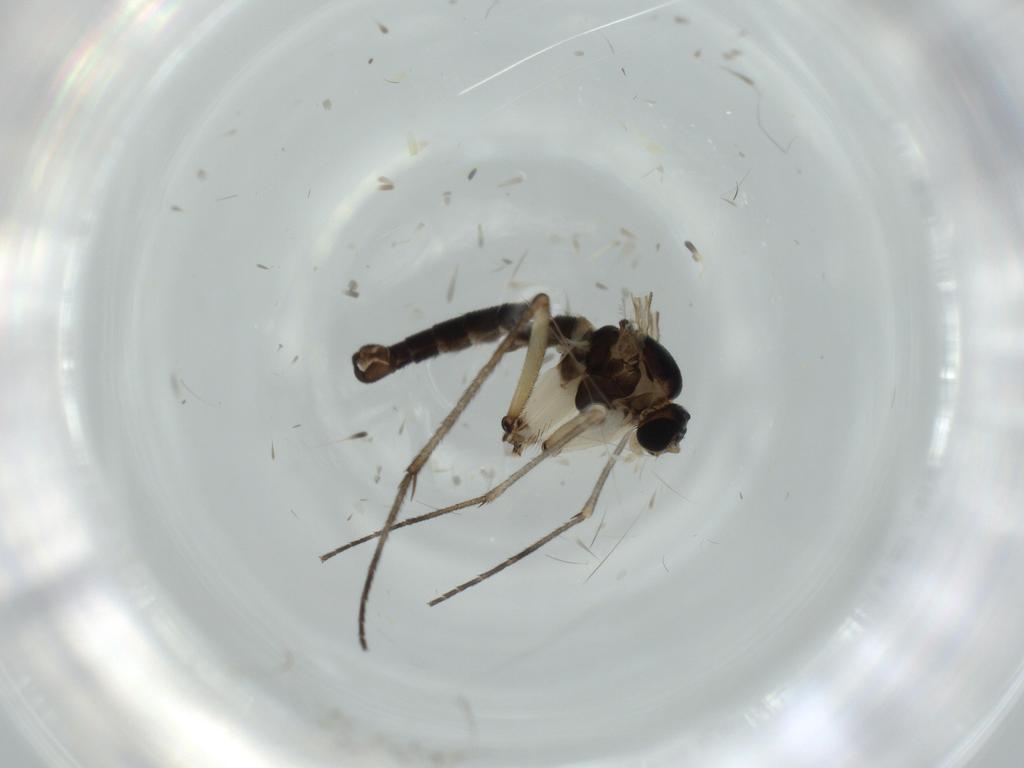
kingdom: Animalia
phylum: Arthropoda
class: Insecta
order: Diptera
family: Sciaridae
